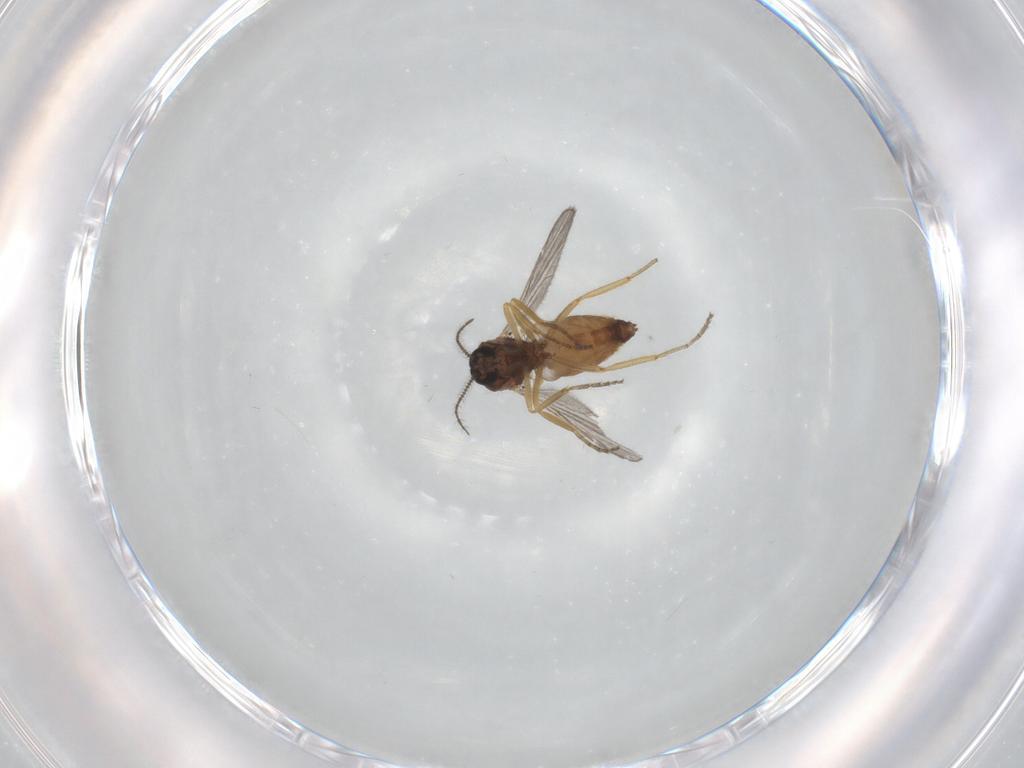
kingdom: Animalia
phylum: Arthropoda
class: Insecta
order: Diptera
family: Ceratopogonidae
